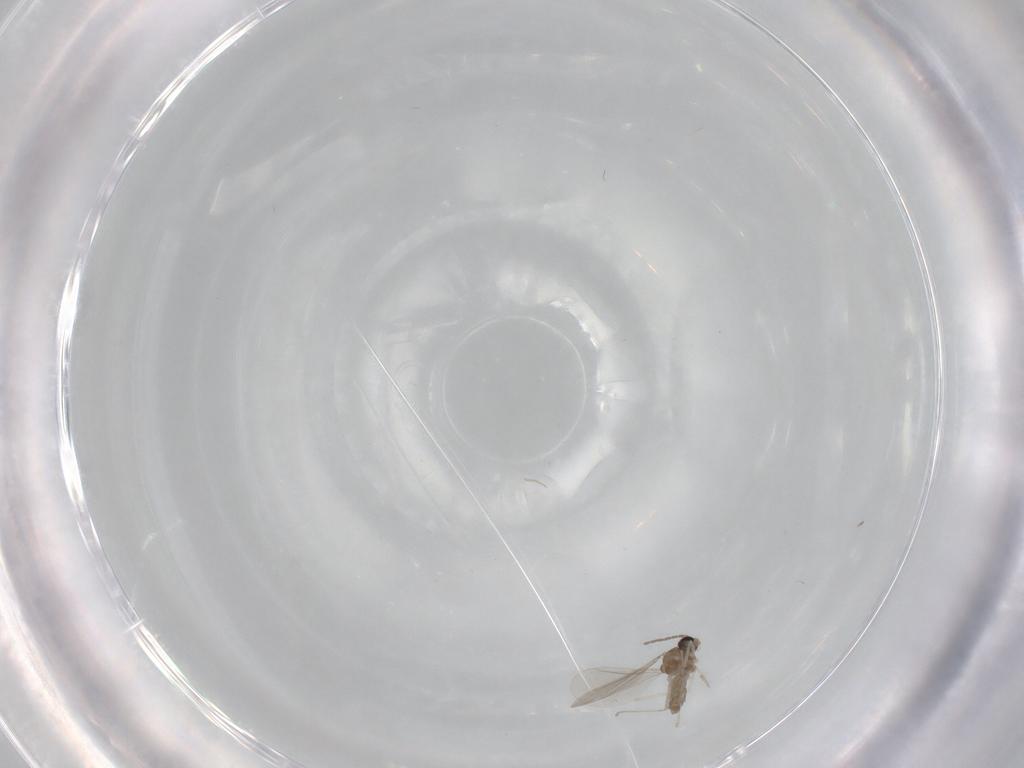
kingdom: Animalia
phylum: Arthropoda
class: Insecta
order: Diptera
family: Cecidomyiidae
